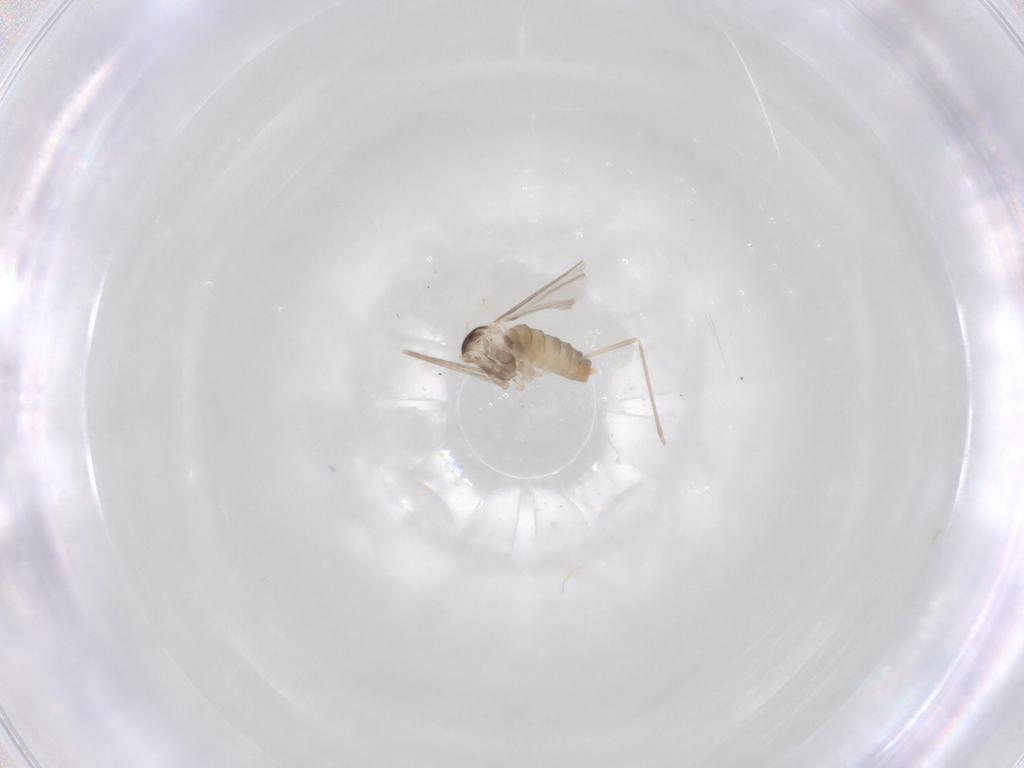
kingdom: Animalia
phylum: Arthropoda
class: Insecta
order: Diptera
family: Cecidomyiidae
